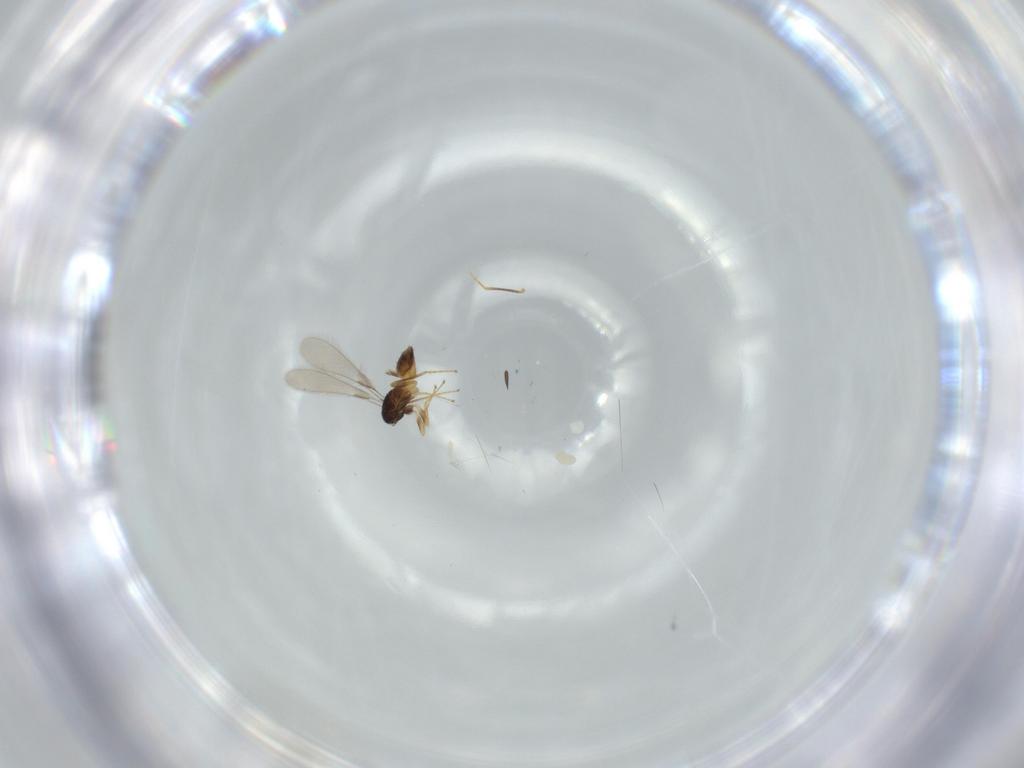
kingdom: Animalia
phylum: Arthropoda
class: Insecta
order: Hymenoptera
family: Mymaridae
